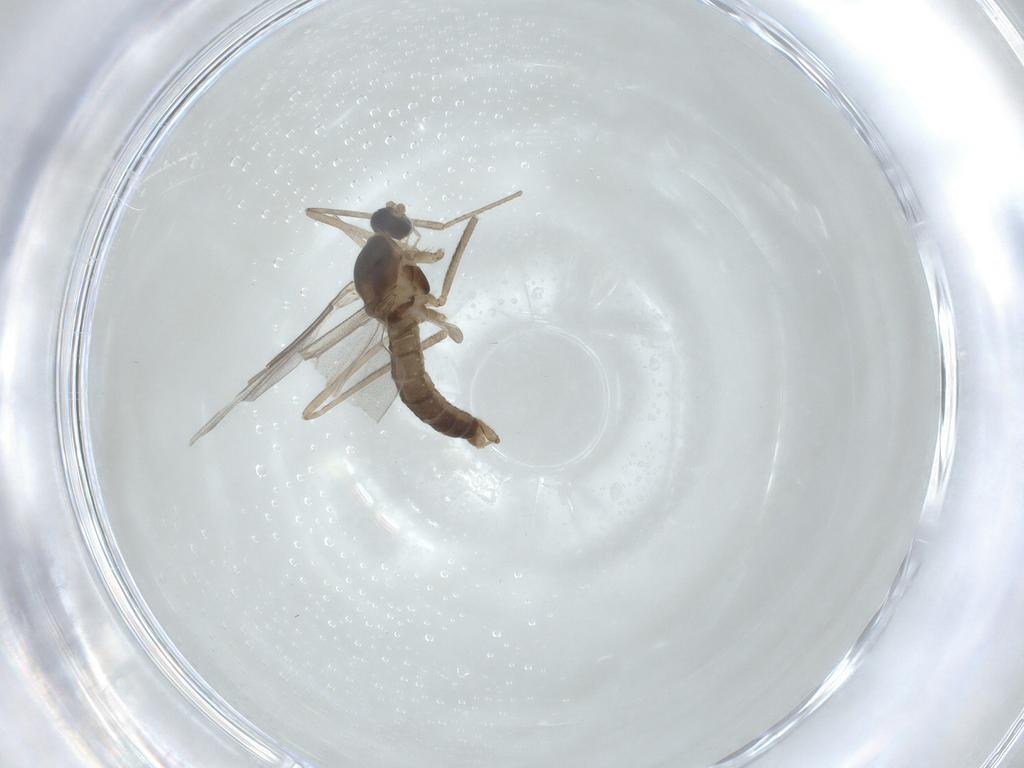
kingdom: Animalia
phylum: Arthropoda
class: Insecta
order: Diptera
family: Cecidomyiidae
